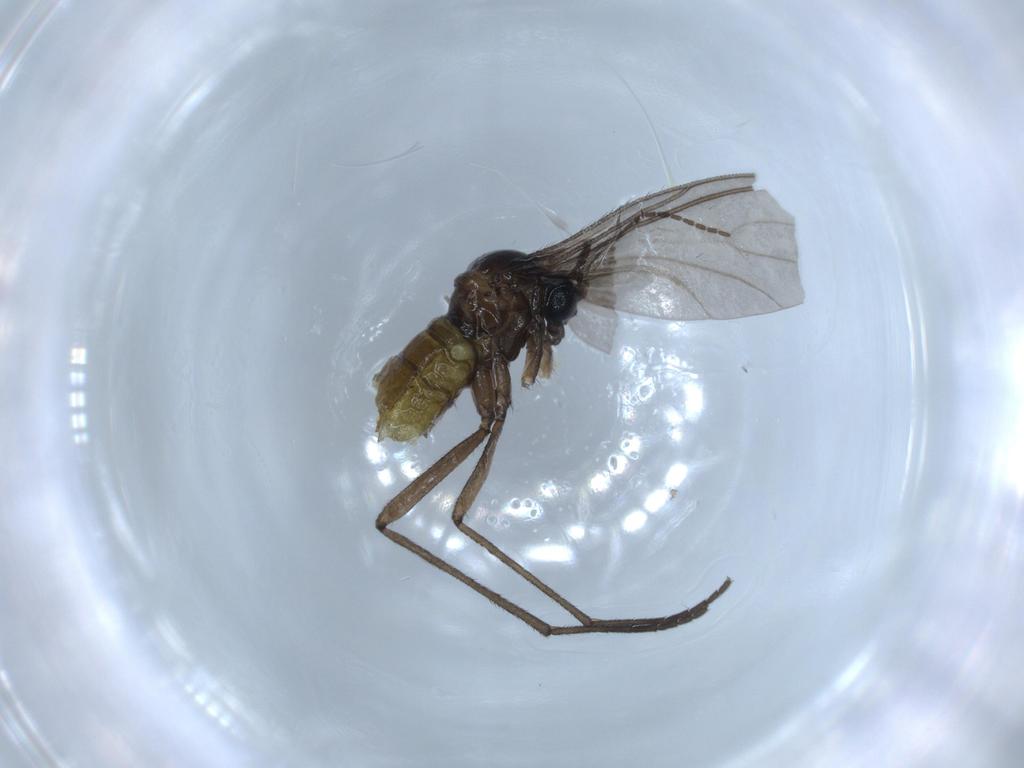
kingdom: Animalia
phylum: Arthropoda
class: Insecta
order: Diptera
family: Sciaridae
